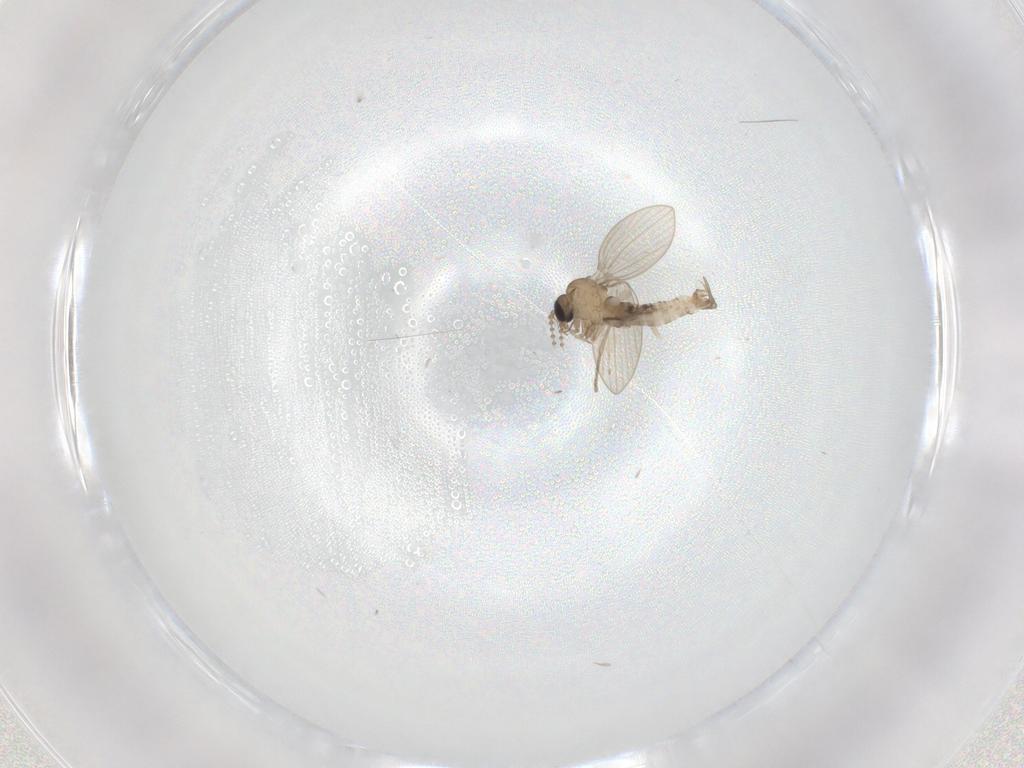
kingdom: Animalia
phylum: Arthropoda
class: Insecta
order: Diptera
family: Psychodidae
